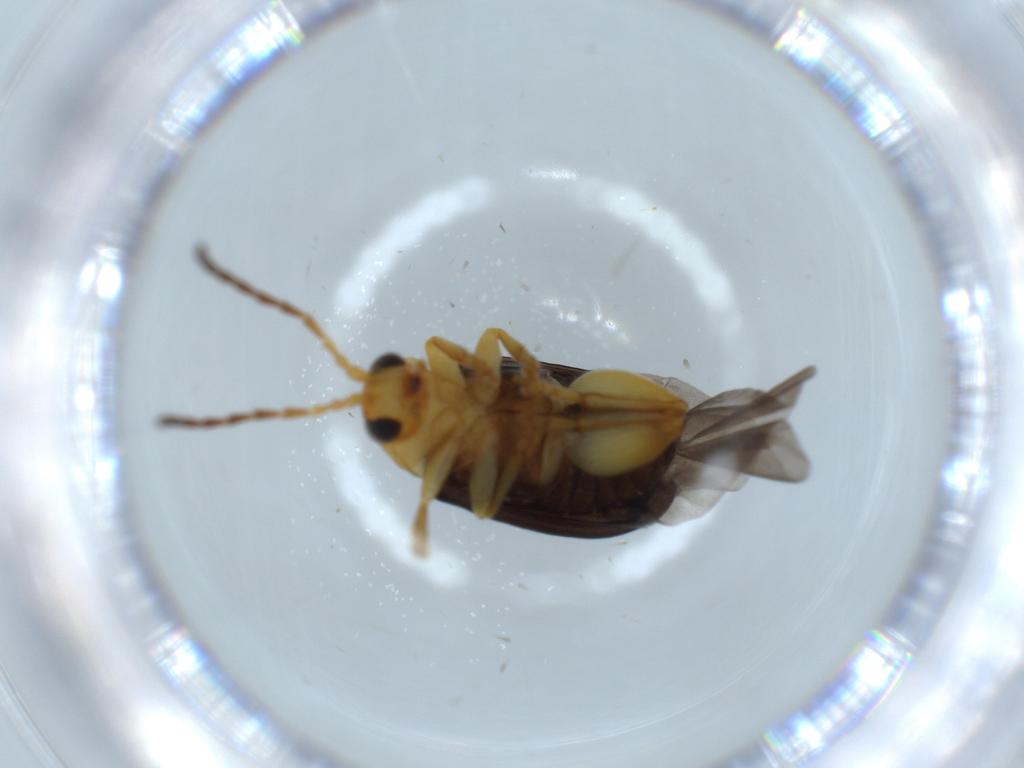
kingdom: Animalia
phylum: Arthropoda
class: Insecta
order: Coleoptera
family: Chrysomelidae
